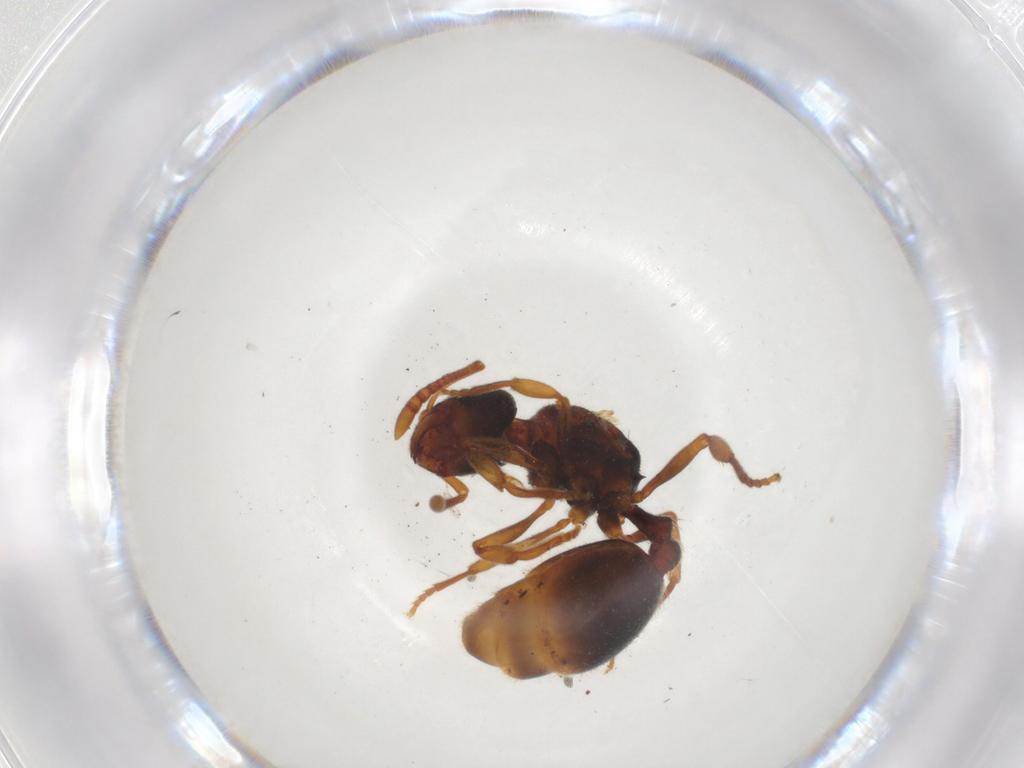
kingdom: Animalia
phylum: Arthropoda
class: Insecta
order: Hymenoptera
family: Formicidae
